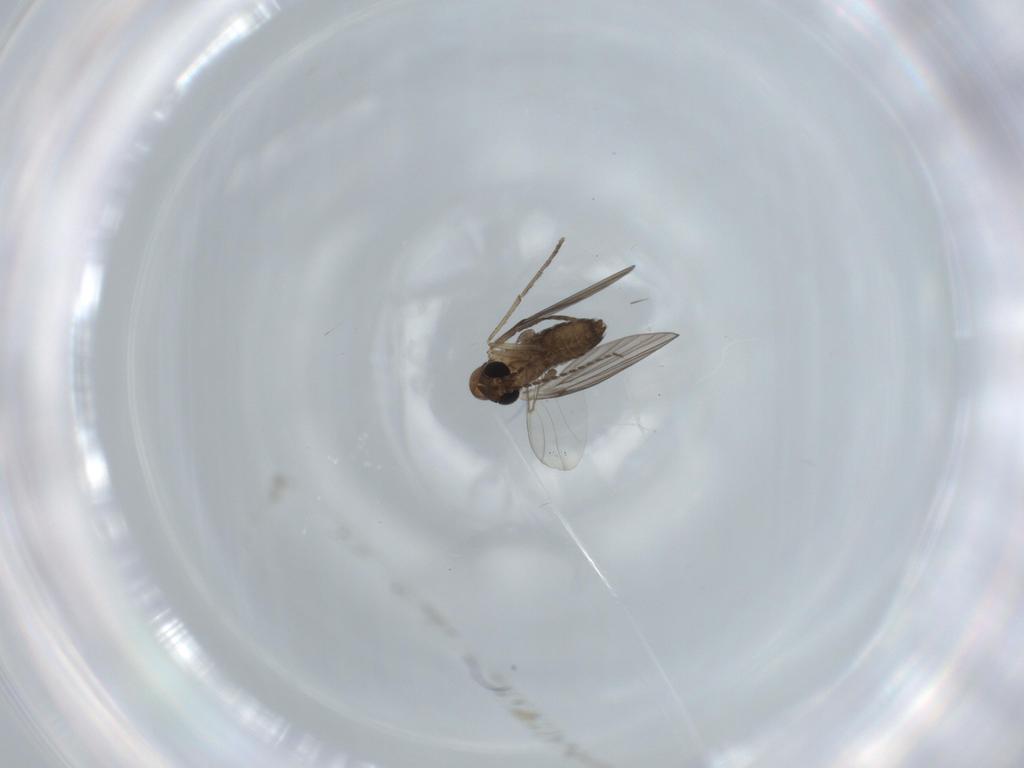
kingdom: Animalia
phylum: Arthropoda
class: Insecta
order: Diptera
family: Psychodidae
